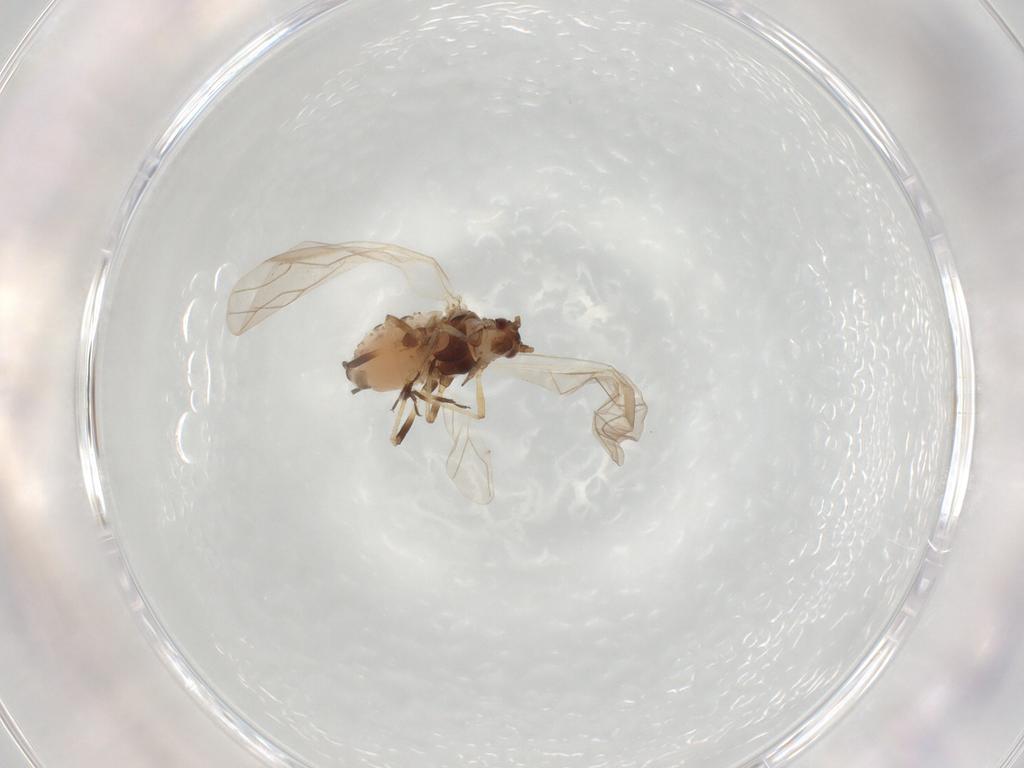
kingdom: Animalia
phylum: Arthropoda
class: Insecta
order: Hemiptera
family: Aphididae
